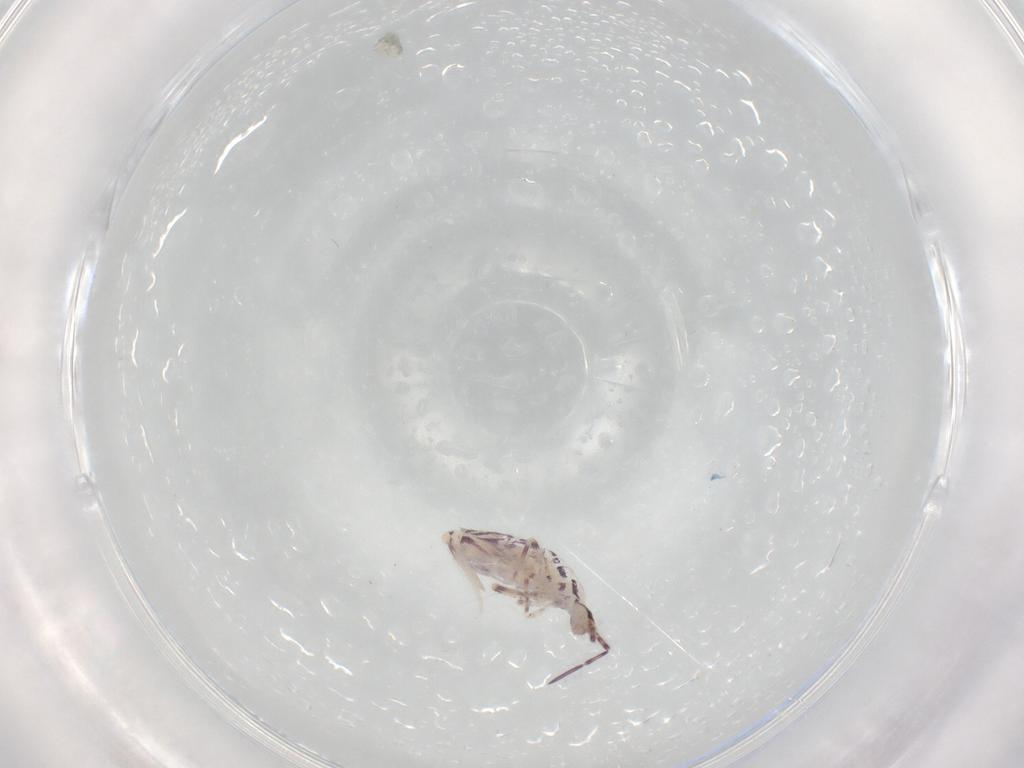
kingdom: Animalia
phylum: Arthropoda
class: Collembola
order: Entomobryomorpha
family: Entomobryidae
